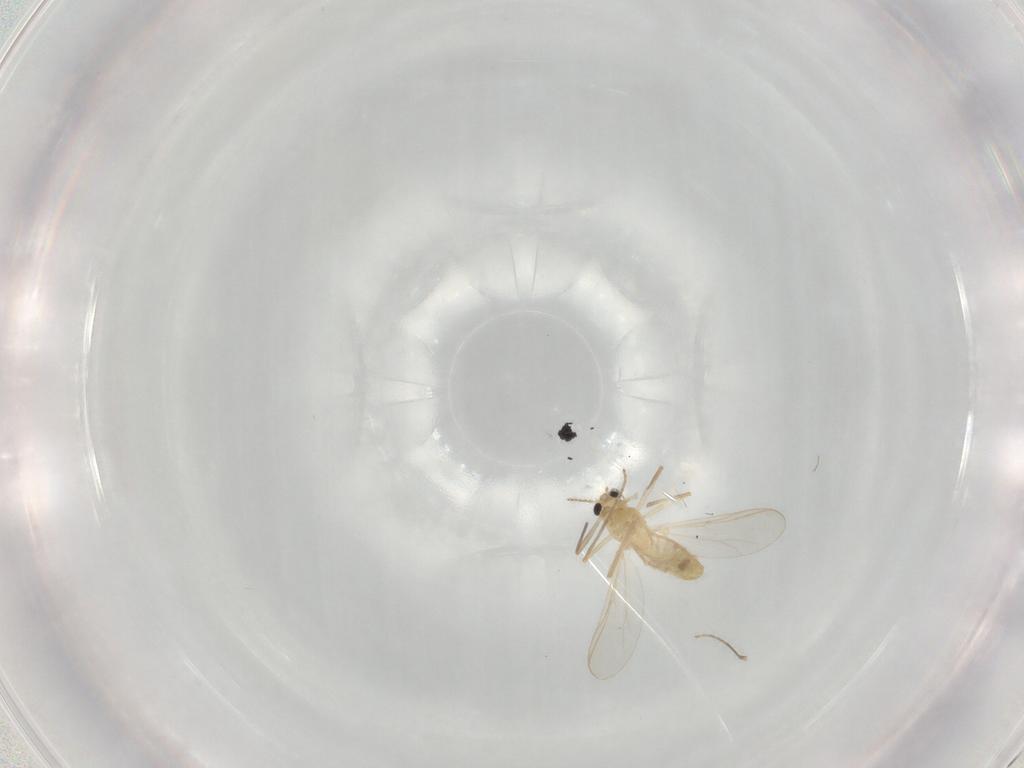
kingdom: Animalia
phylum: Arthropoda
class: Insecta
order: Diptera
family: Chironomidae
